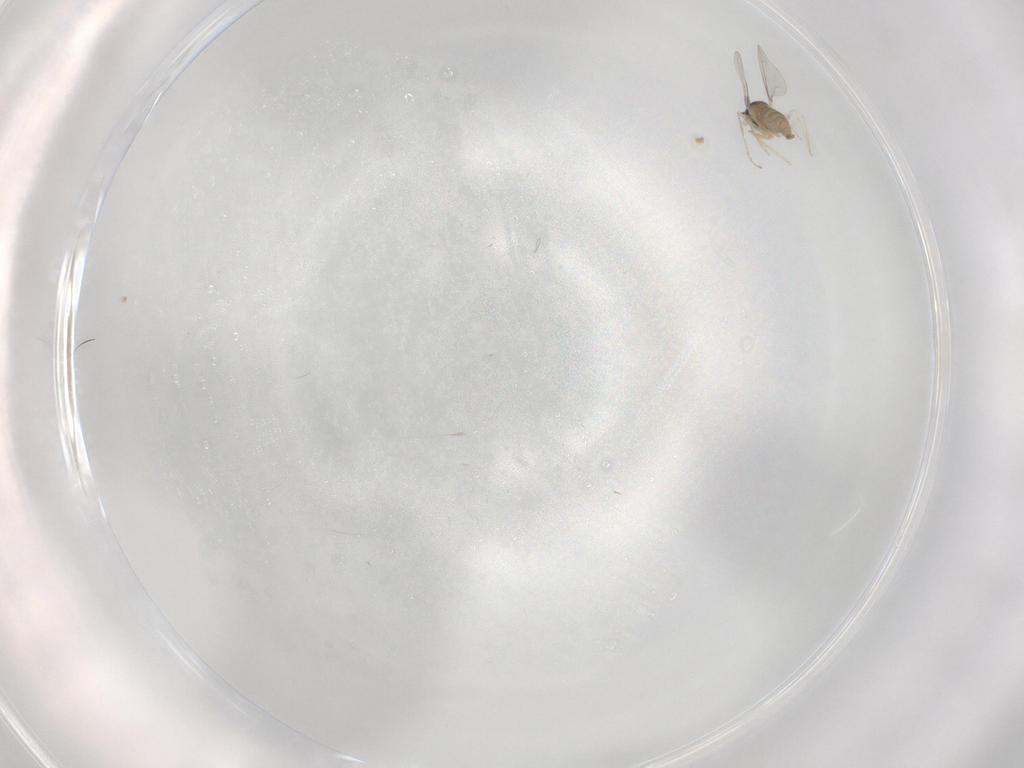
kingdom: Animalia
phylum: Arthropoda
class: Insecta
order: Diptera
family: Cecidomyiidae
